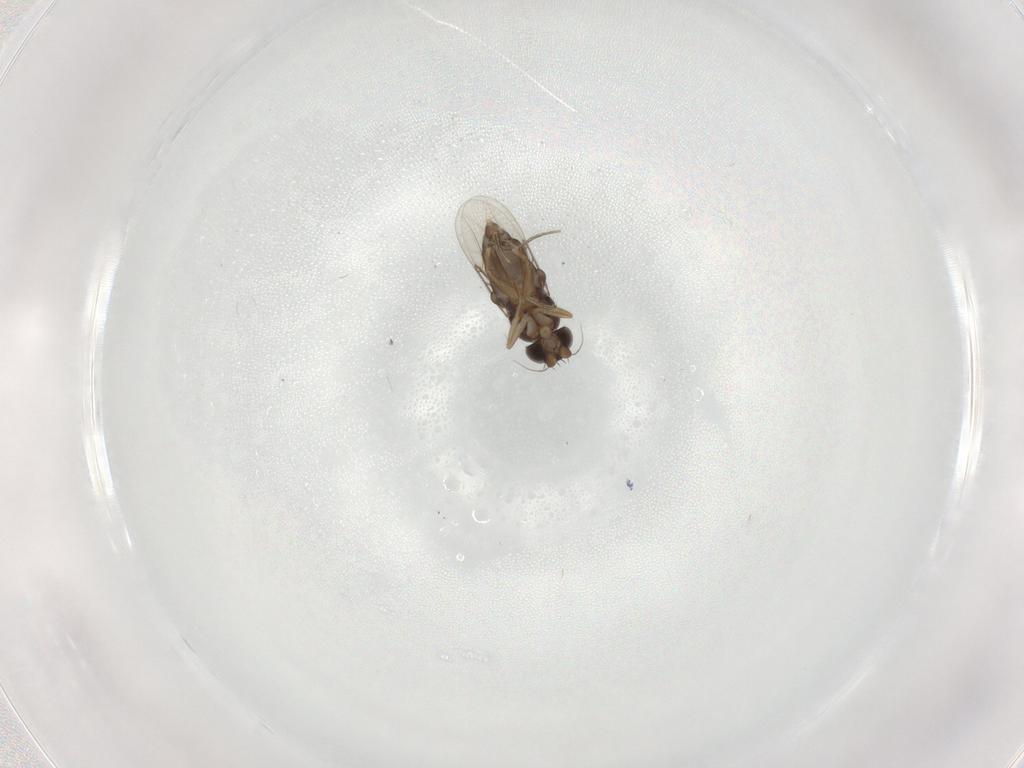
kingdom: Animalia
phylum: Arthropoda
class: Insecta
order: Diptera
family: Phoridae
